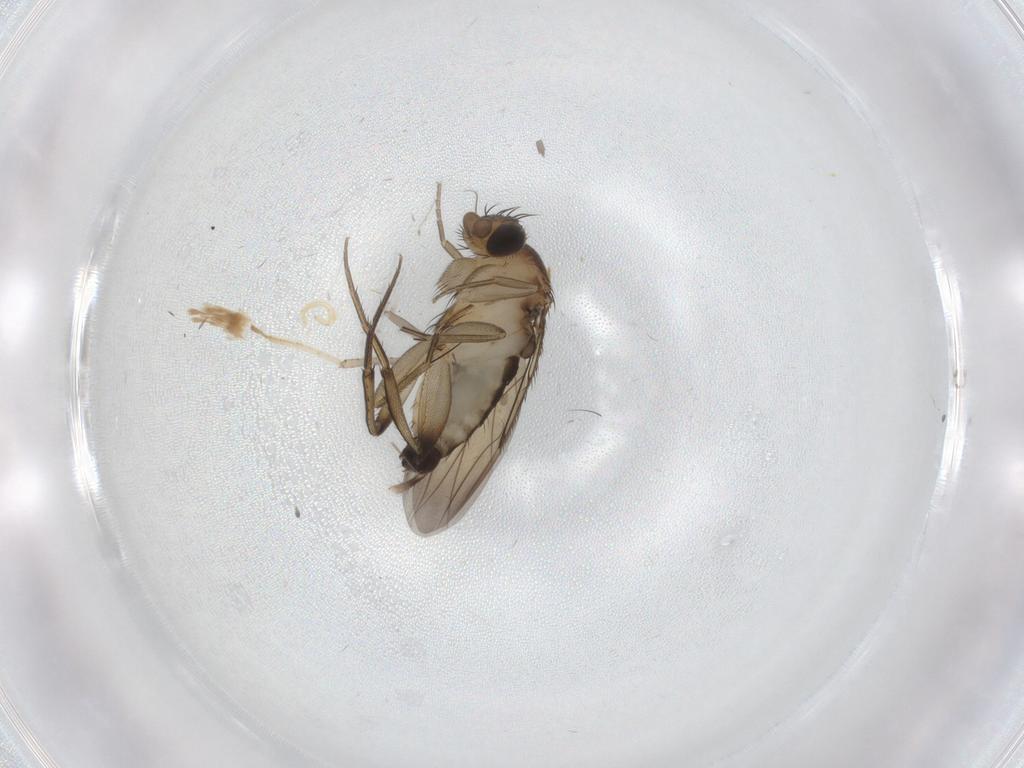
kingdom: Animalia
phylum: Arthropoda
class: Insecta
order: Diptera
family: Phoridae
